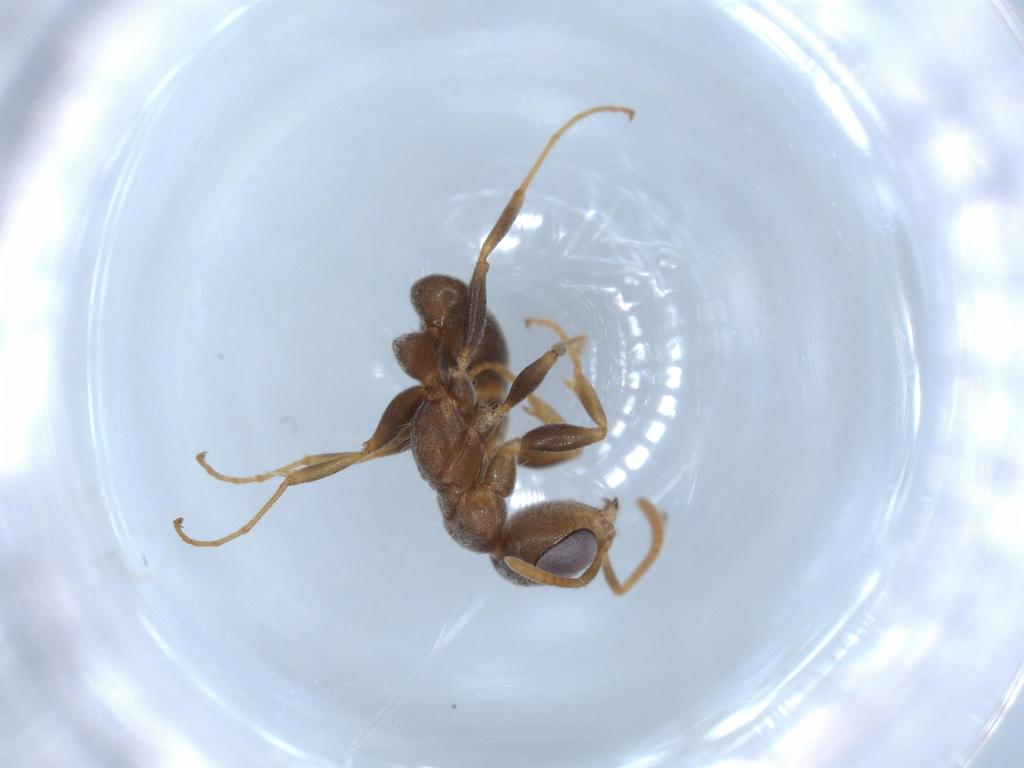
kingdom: Animalia
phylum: Arthropoda
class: Insecta
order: Hymenoptera
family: Formicidae
